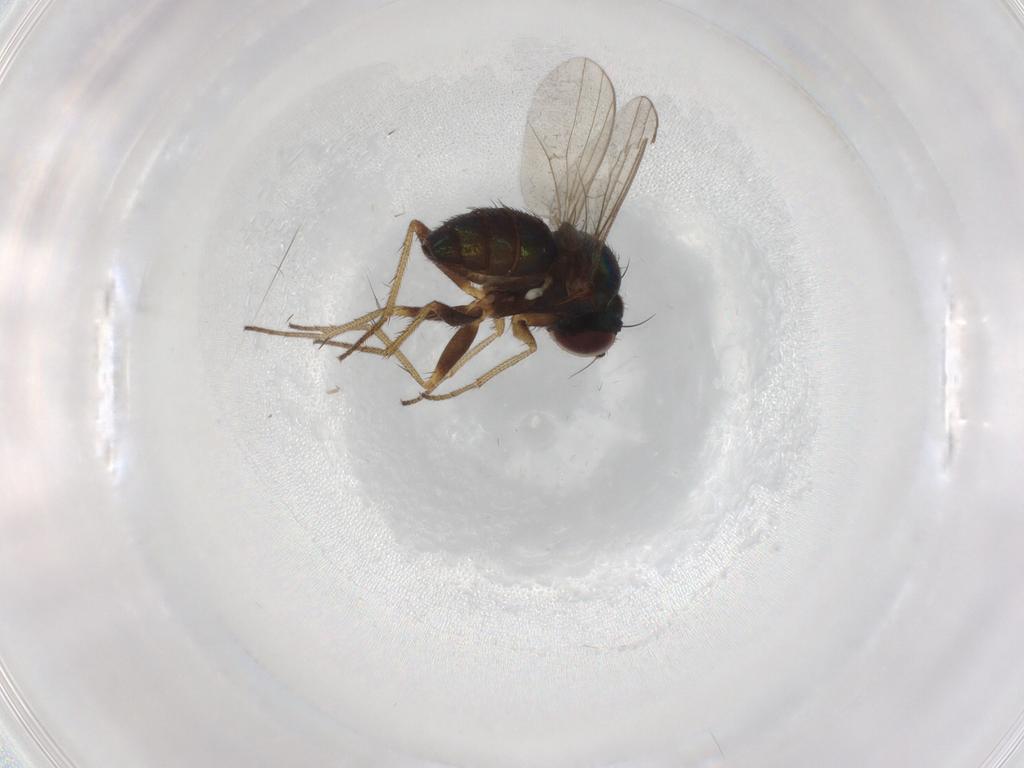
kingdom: Animalia
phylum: Arthropoda
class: Insecta
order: Diptera
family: Dolichopodidae
